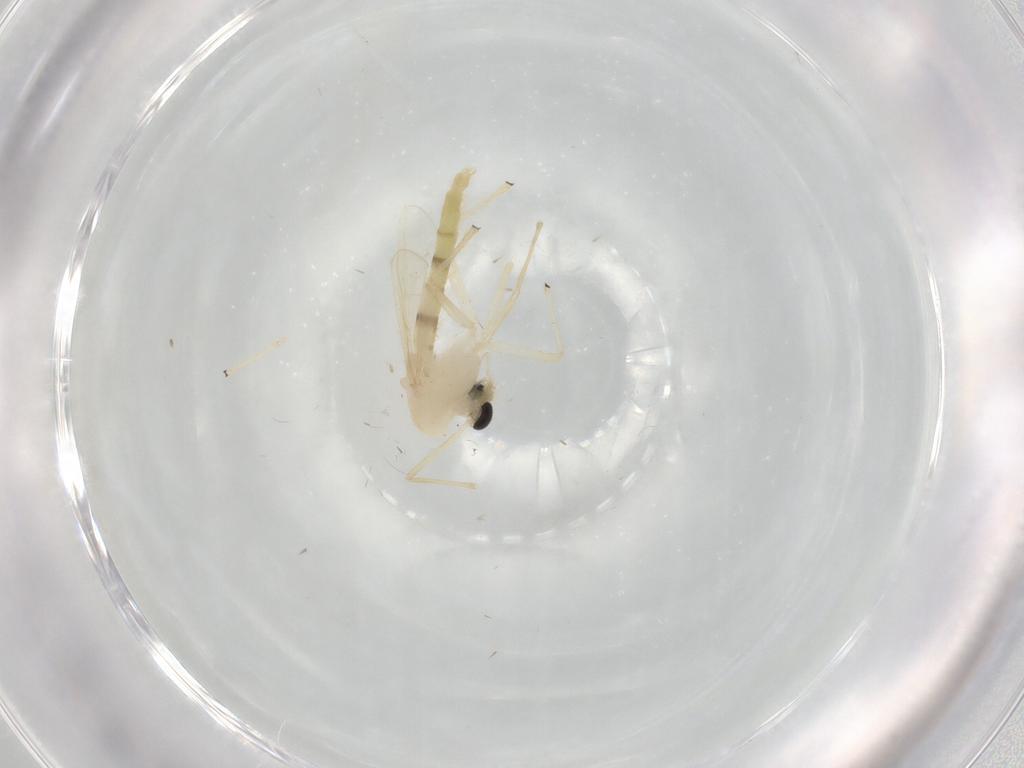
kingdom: Animalia
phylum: Arthropoda
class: Insecta
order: Diptera
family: Chironomidae
